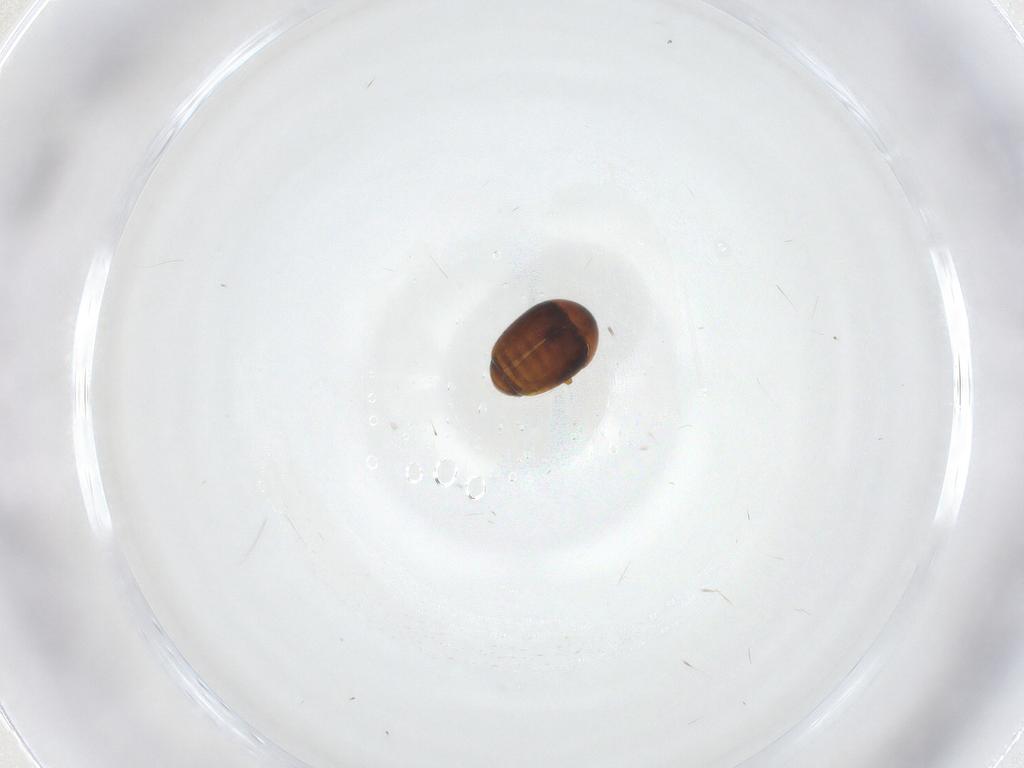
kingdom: Animalia
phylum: Arthropoda
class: Insecta
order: Coleoptera
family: Corylophidae
